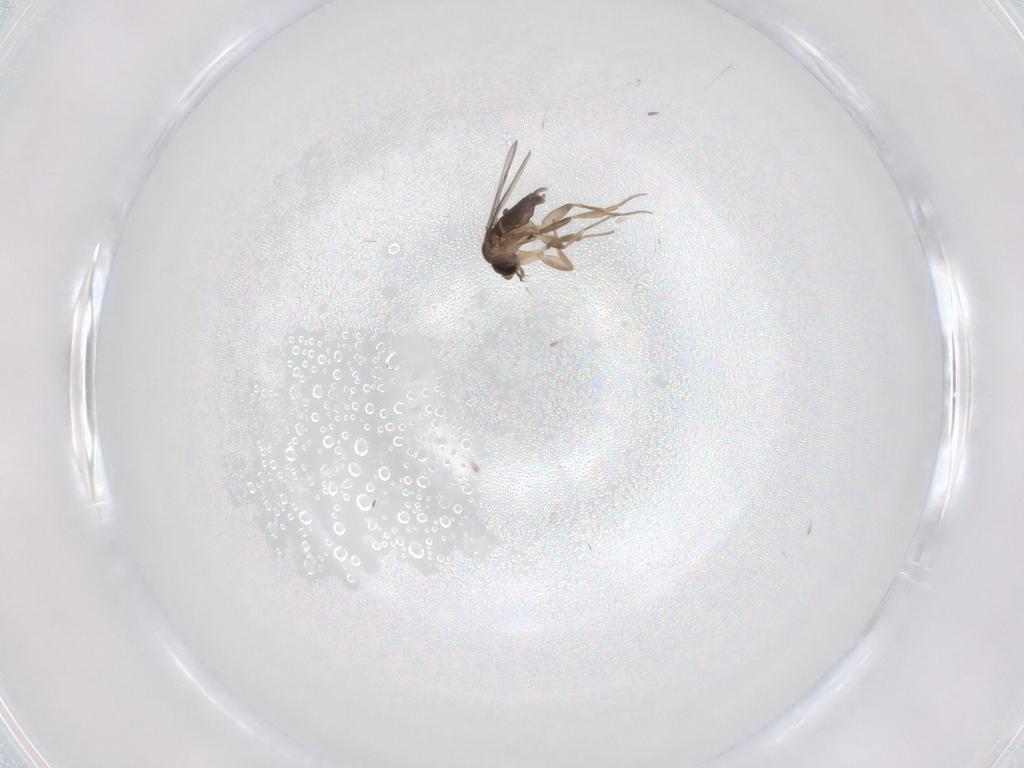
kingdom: Animalia
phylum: Arthropoda
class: Insecta
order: Diptera
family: Phoridae
